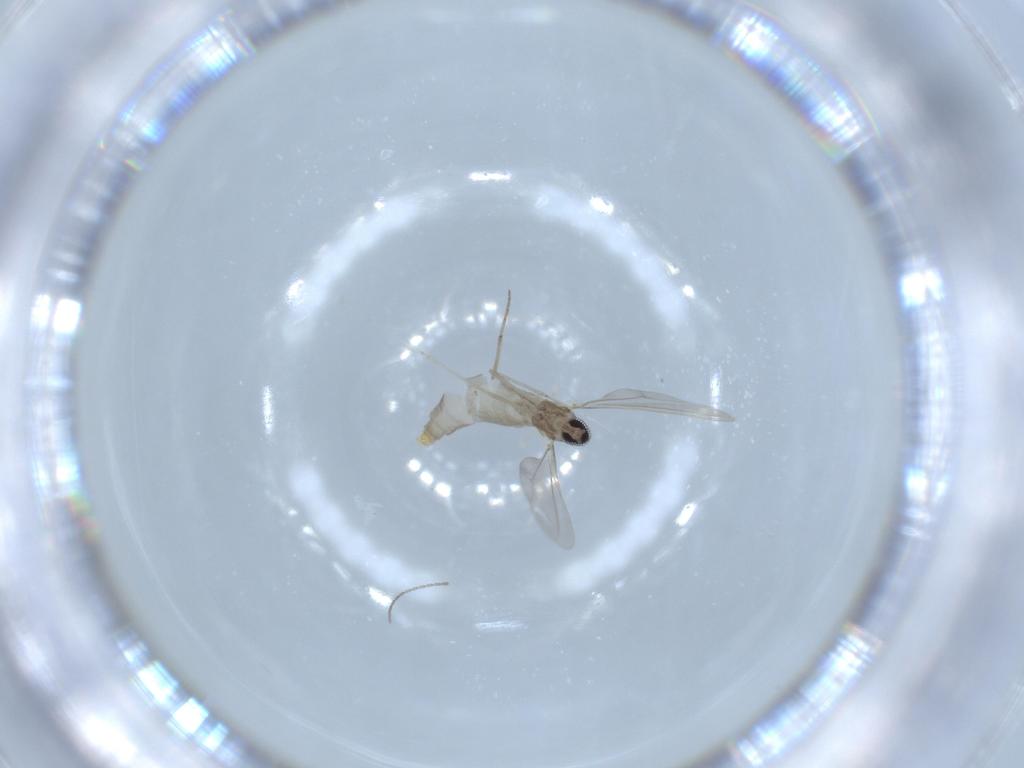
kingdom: Animalia
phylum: Arthropoda
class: Insecta
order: Diptera
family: Cecidomyiidae
